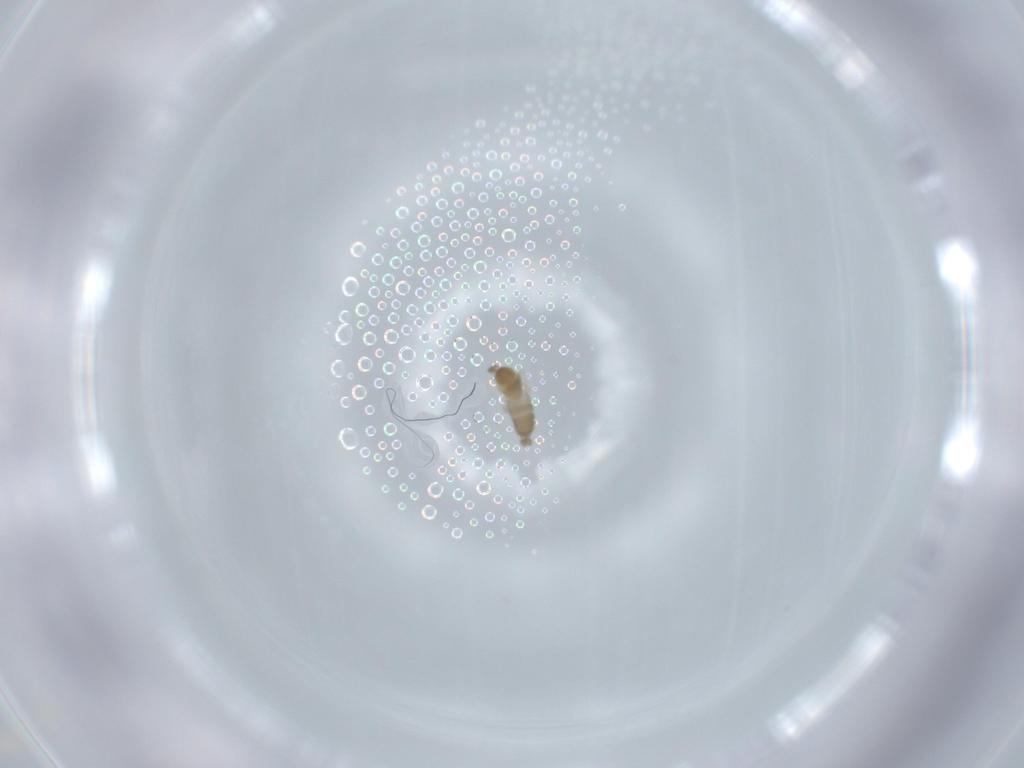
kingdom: Animalia
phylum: Arthropoda
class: Insecta
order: Diptera
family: Cecidomyiidae
